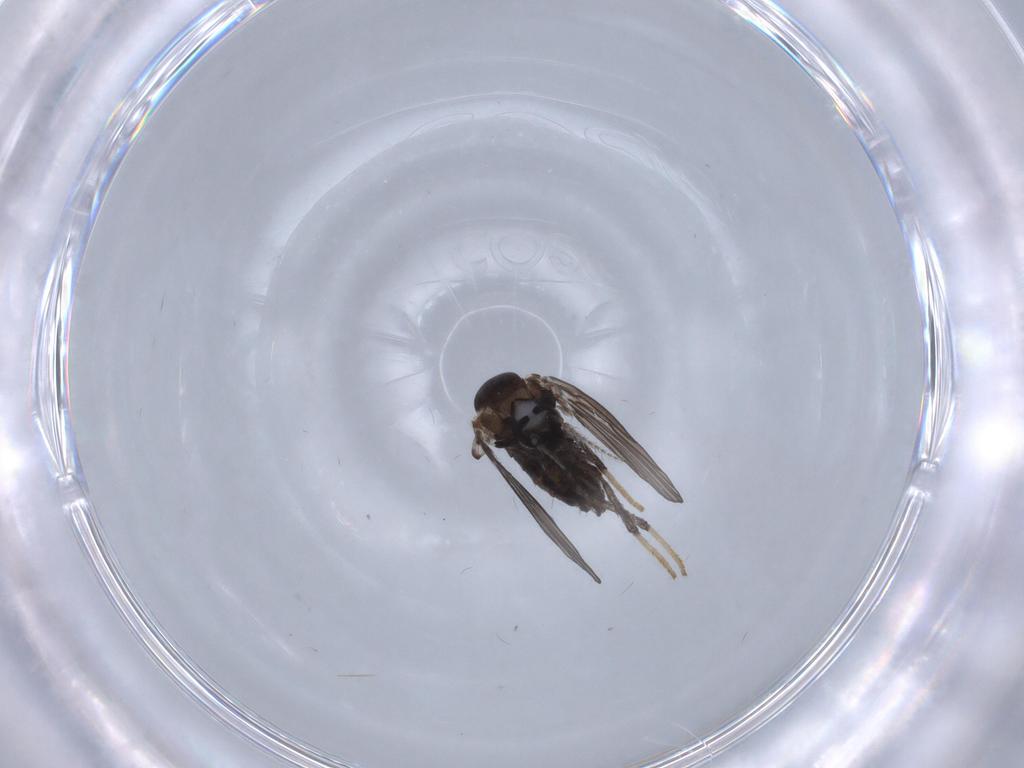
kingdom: Animalia
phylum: Arthropoda
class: Insecta
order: Diptera
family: Psychodidae
